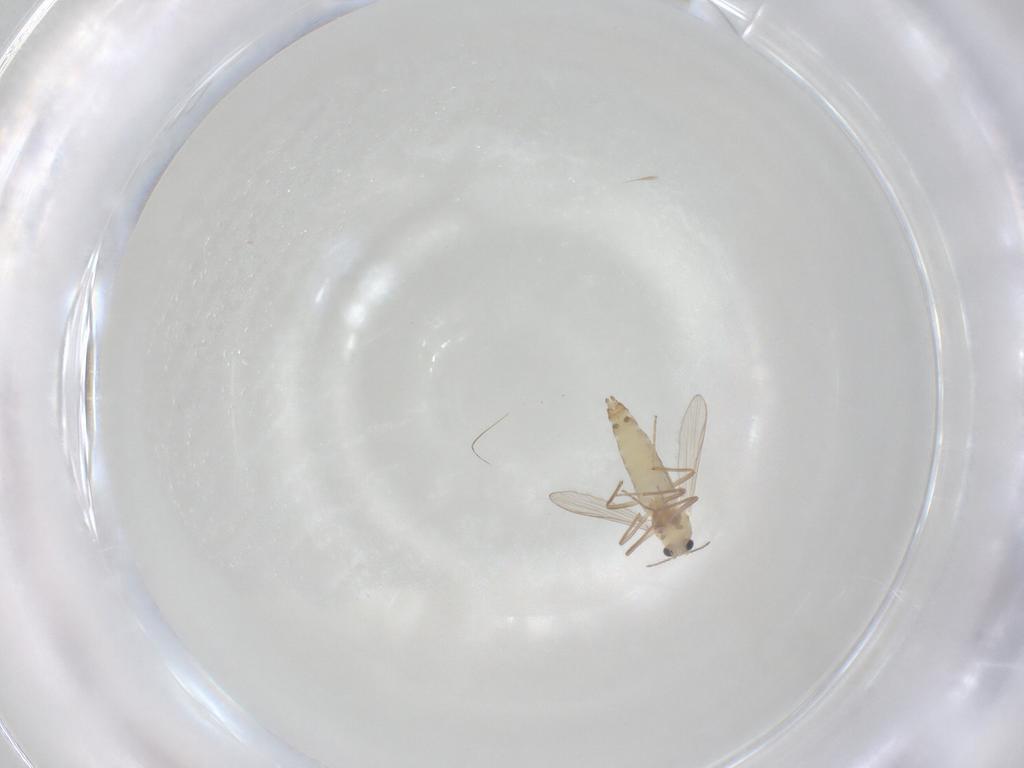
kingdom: Animalia
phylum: Arthropoda
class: Insecta
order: Diptera
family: Chironomidae
